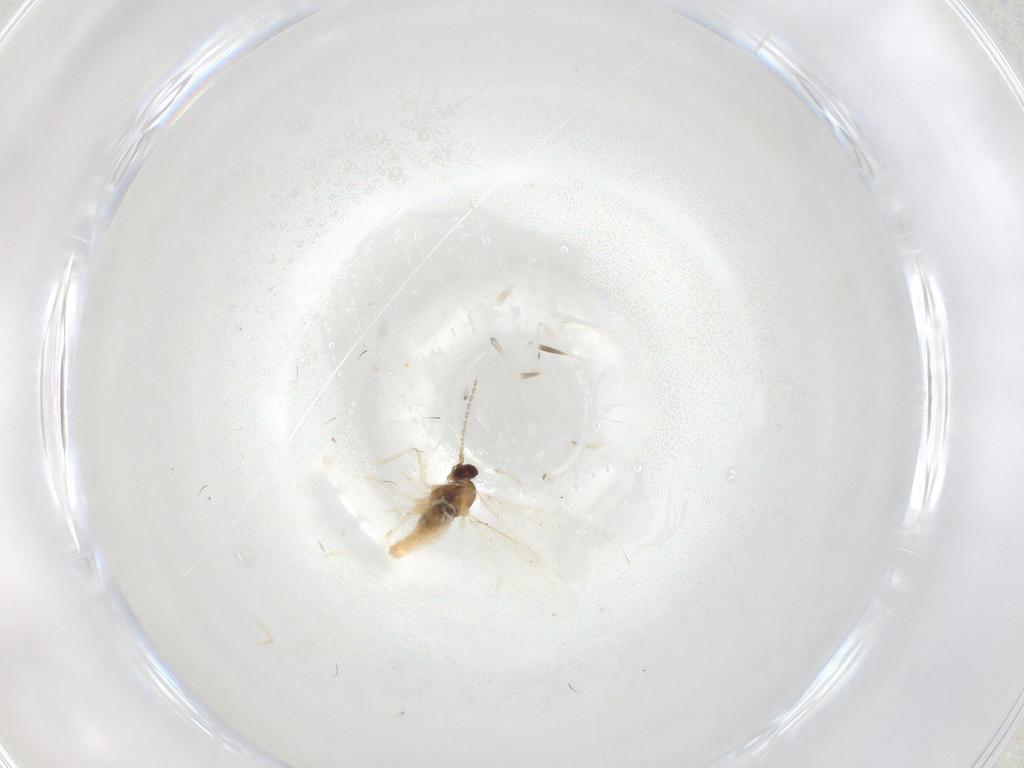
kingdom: Animalia
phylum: Arthropoda
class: Insecta
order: Diptera
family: Cecidomyiidae
